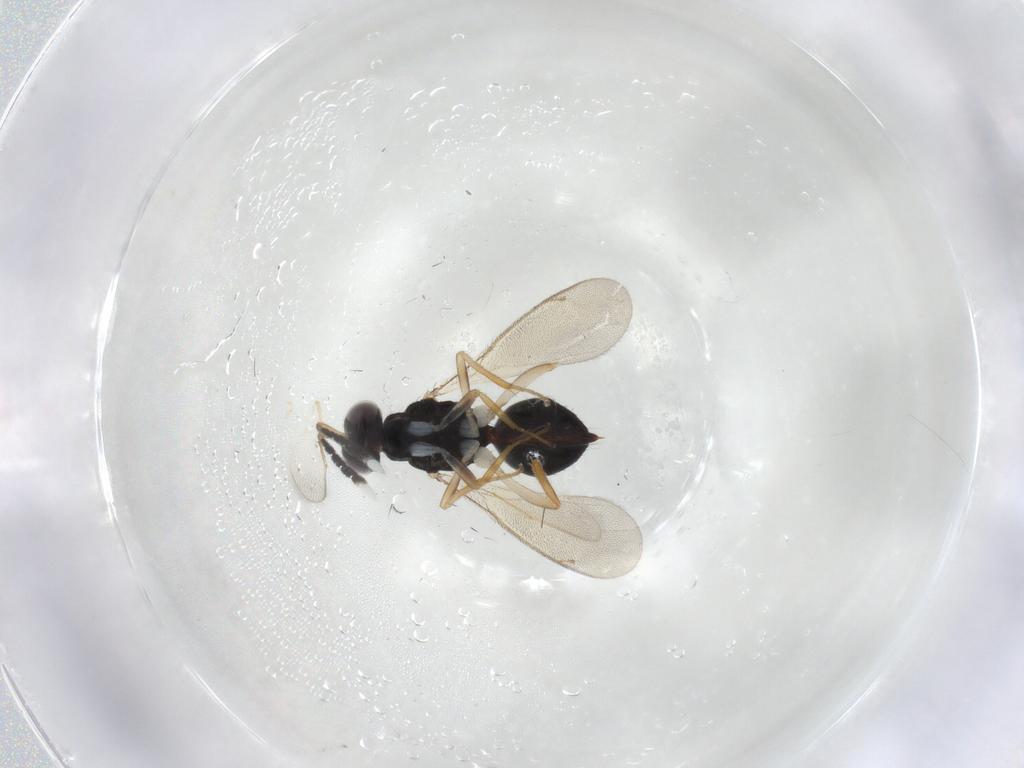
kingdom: Animalia
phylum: Arthropoda
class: Insecta
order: Hymenoptera
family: Eulophidae
